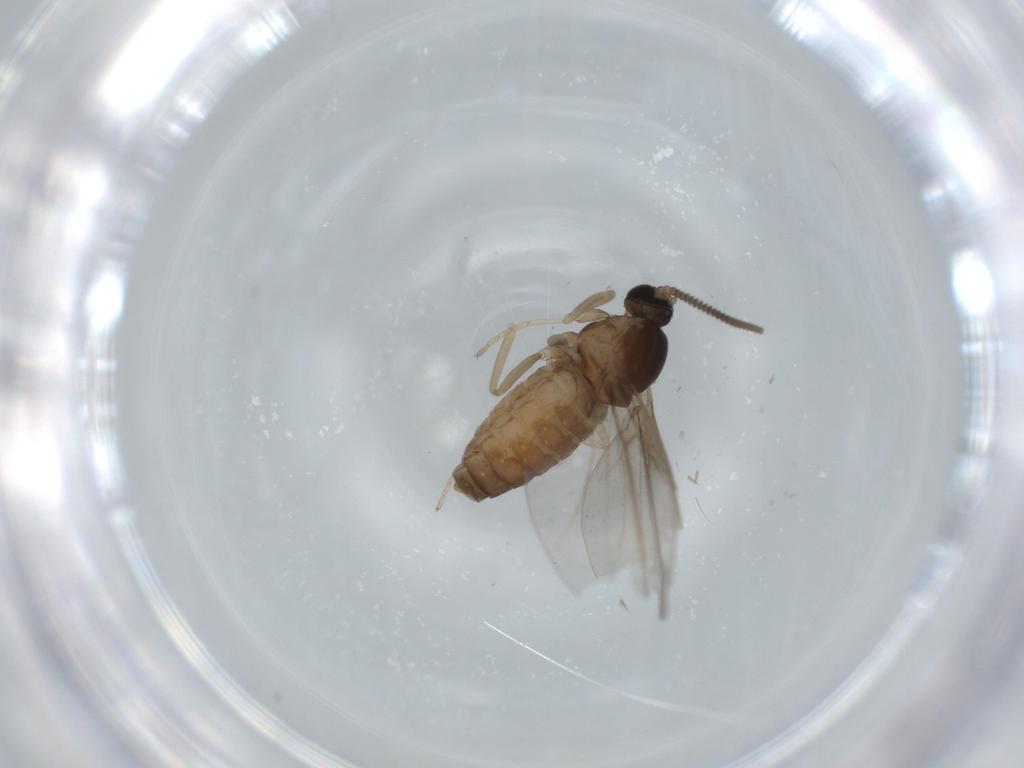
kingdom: Animalia
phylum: Arthropoda
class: Insecta
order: Diptera
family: Cecidomyiidae
